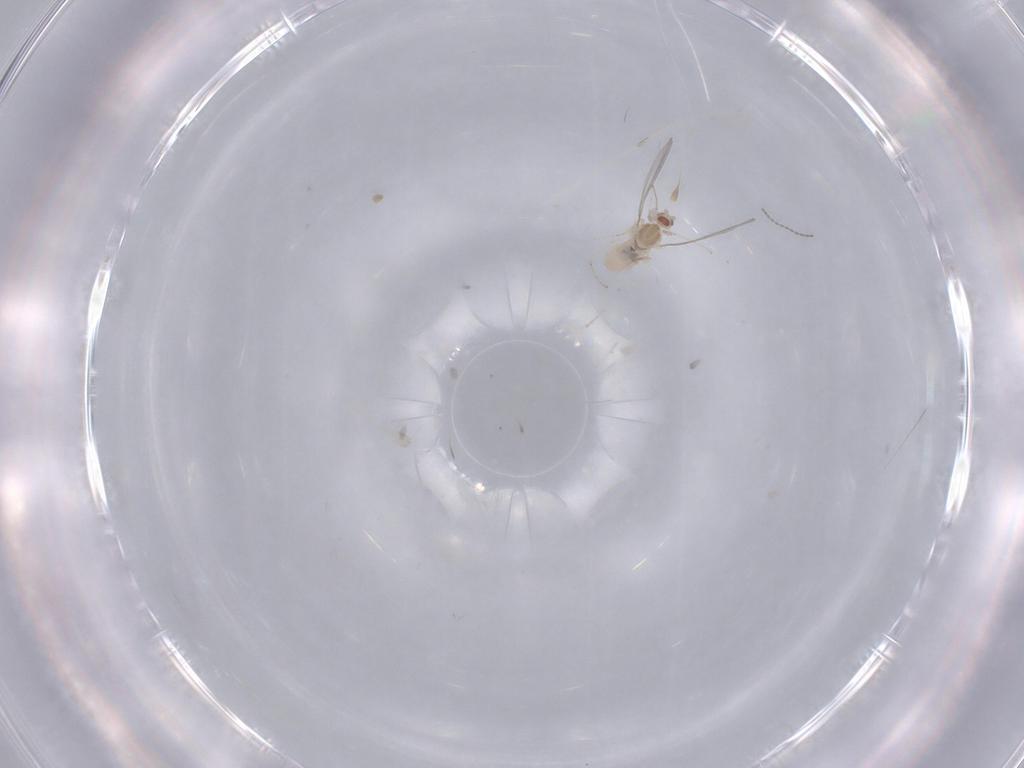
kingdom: Animalia
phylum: Arthropoda
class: Insecta
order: Diptera
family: Cecidomyiidae
